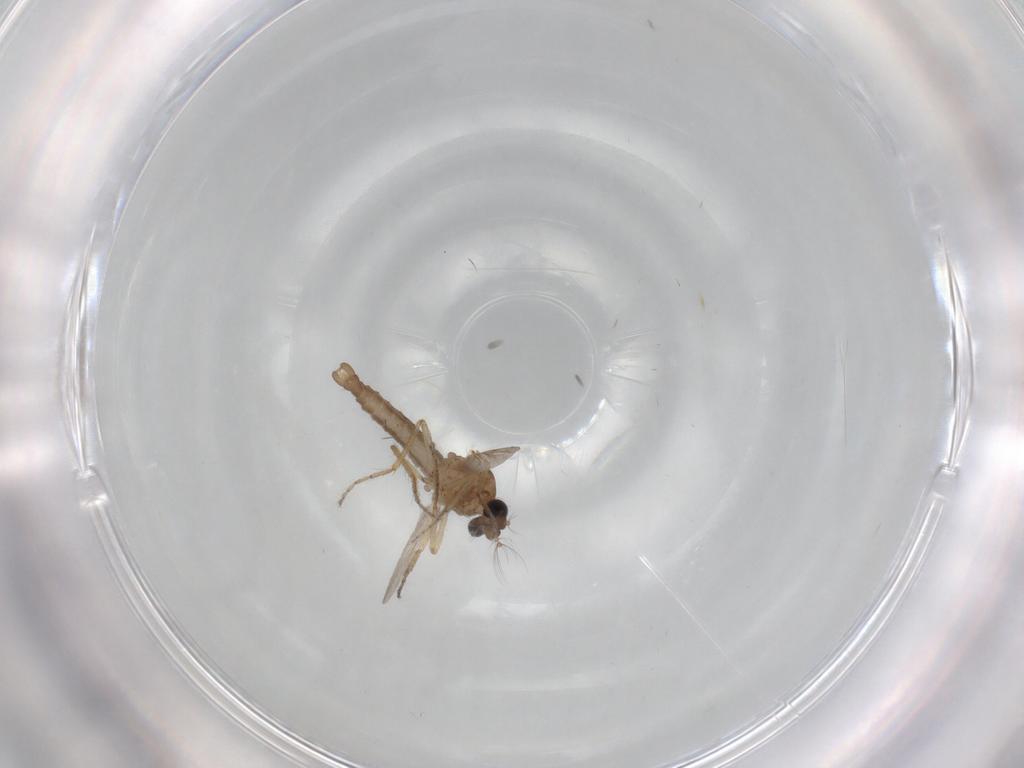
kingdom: Animalia
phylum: Arthropoda
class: Insecta
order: Diptera
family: Ceratopogonidae
